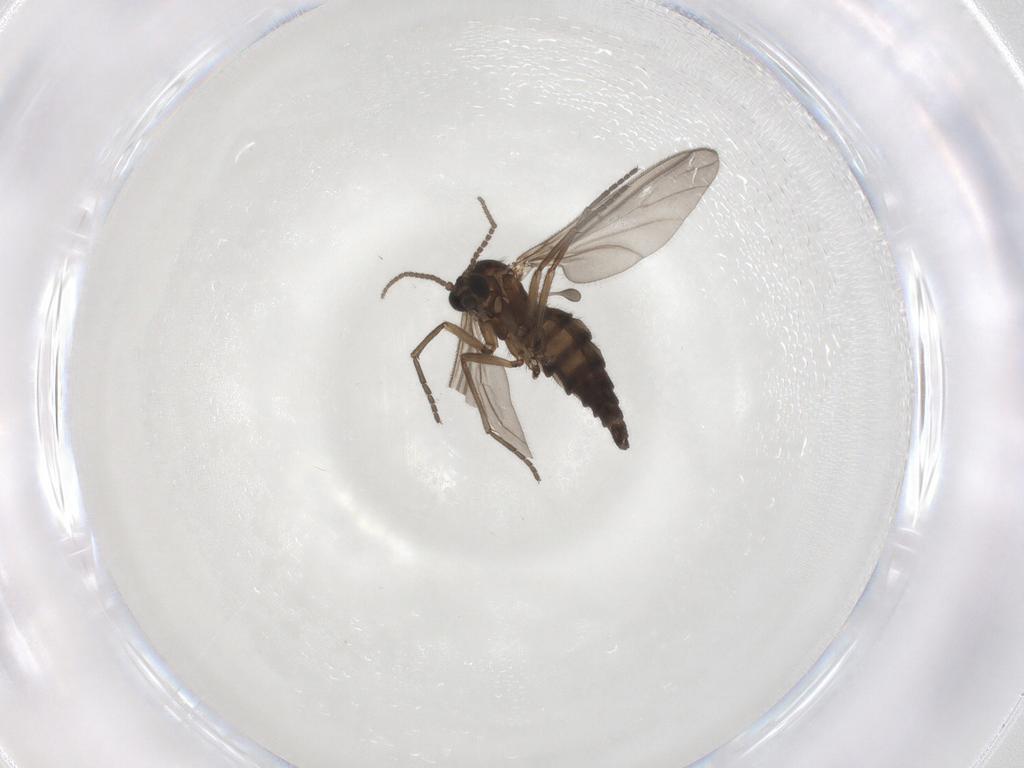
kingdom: Animalia
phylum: Arthropoda
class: Insecta
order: Diptera
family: Sciaridae
